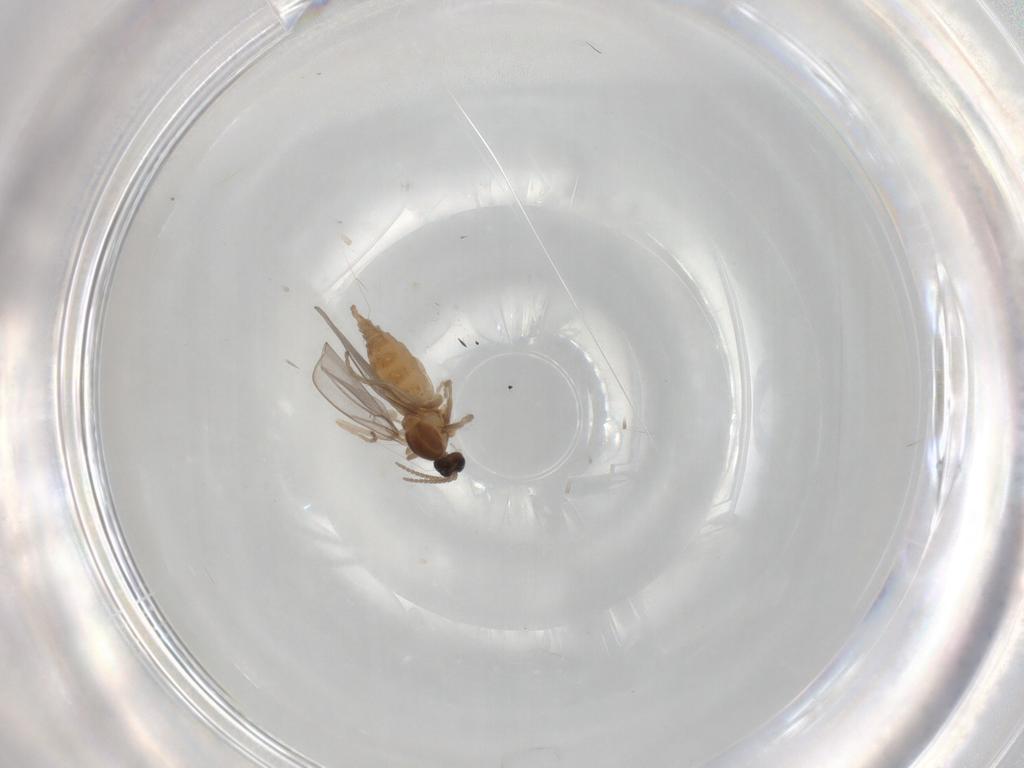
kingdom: Animalia
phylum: Arthropoda
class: Insecta
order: Diptera
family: Cecidomyiidae
